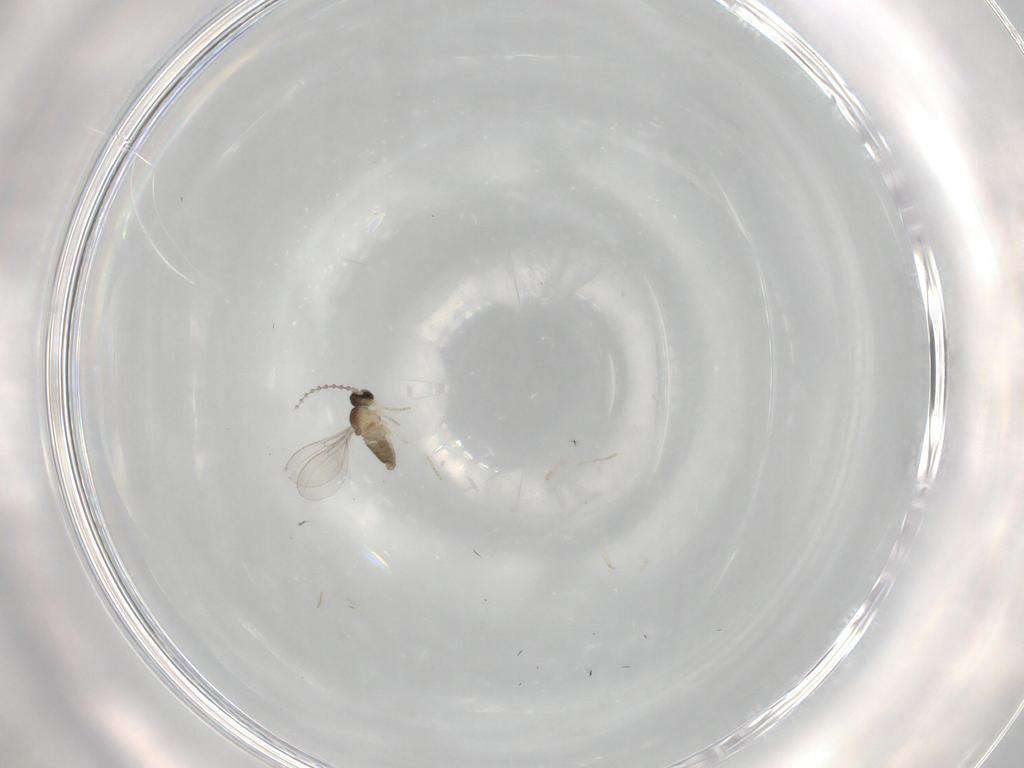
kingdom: Animalia
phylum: Arthropoda
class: Insecta
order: Diptera
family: Cecidomyiidae
